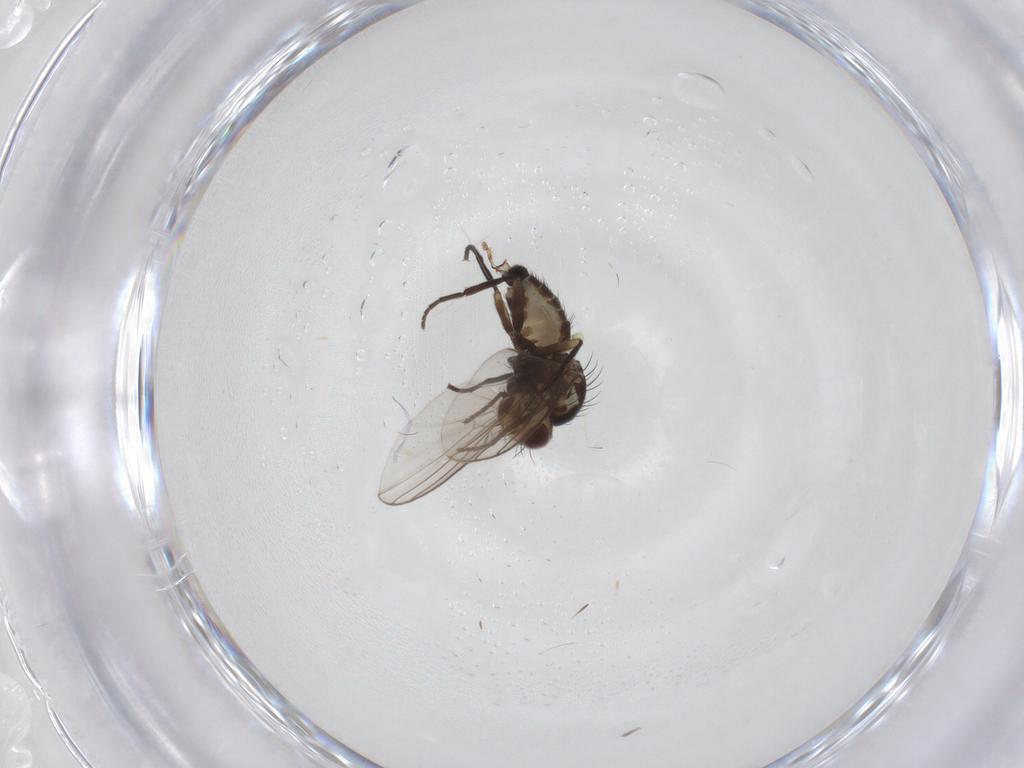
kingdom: Animalia
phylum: Arthropoda
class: Insecta
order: Diptera
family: Agromyzidae
